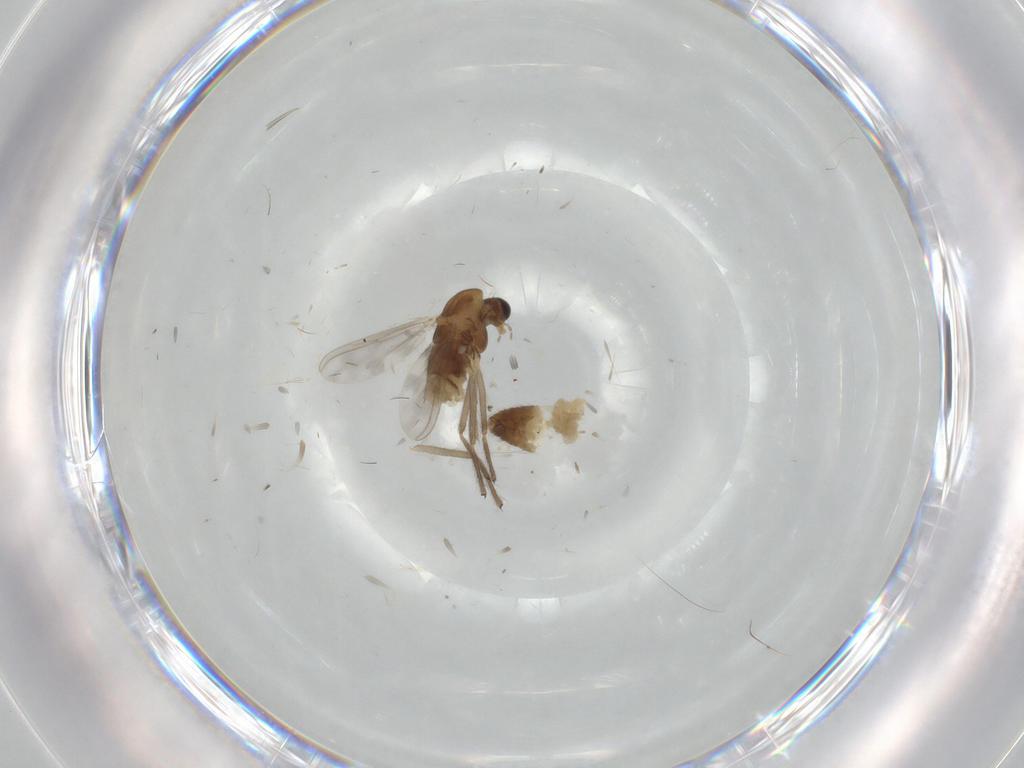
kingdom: Animalia
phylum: Arthropoda
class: Insecta
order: Diptera
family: Chironomidae
